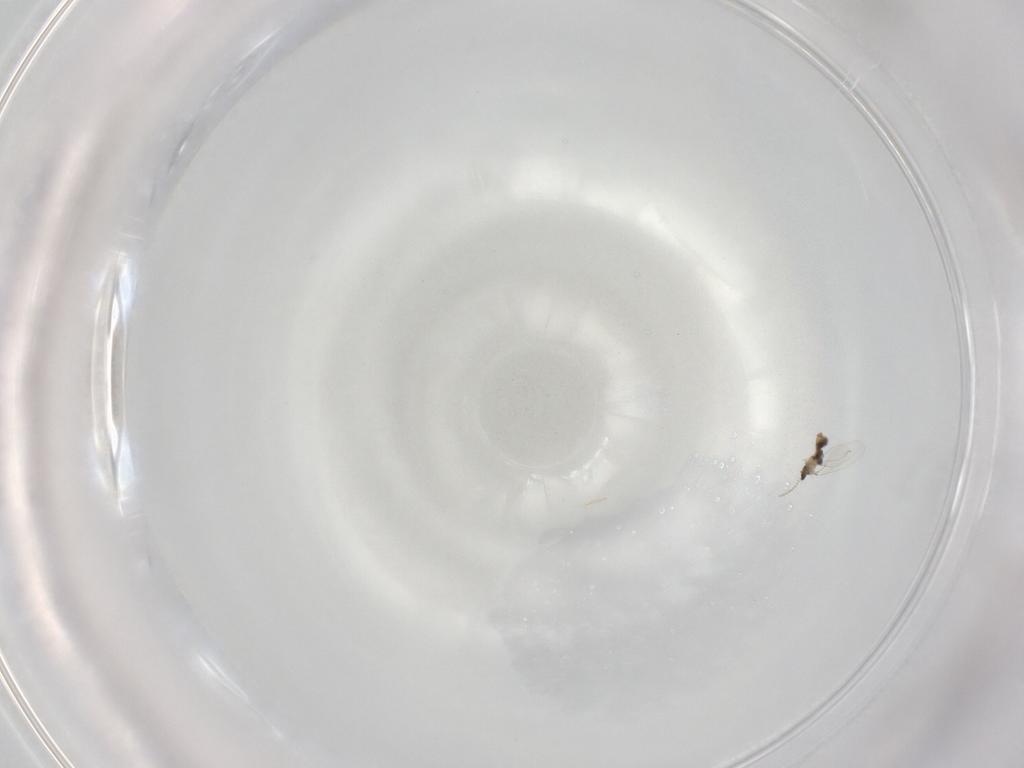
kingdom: Animalia
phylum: Arthropoda
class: Insecta
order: Diptera
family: Cecidomyiidae
